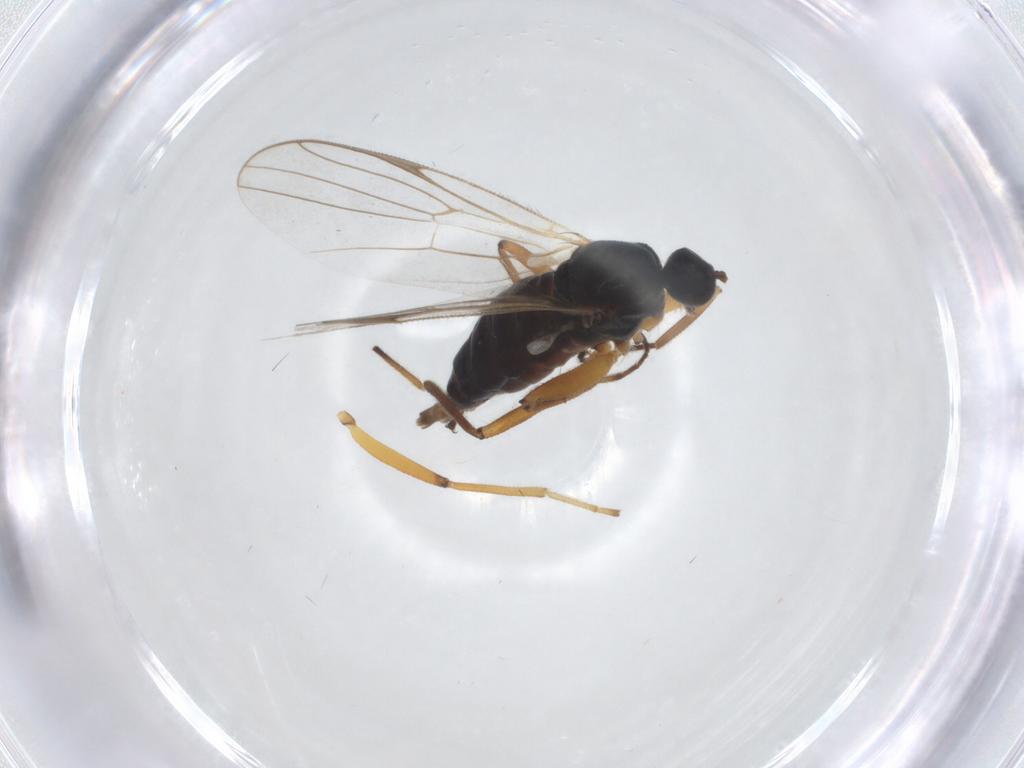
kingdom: Animalia
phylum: Arthropoda
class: Insecta
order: Diptera
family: Hybotidae
